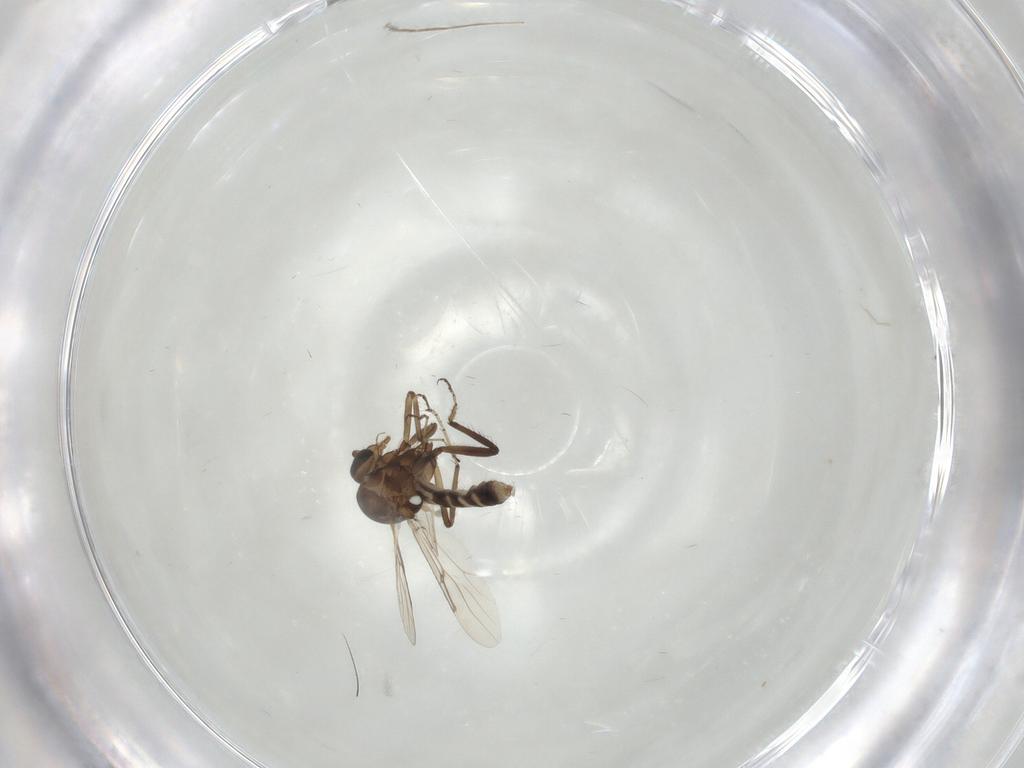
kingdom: Animalia
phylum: Arthropoda
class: Insecta
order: Diptera
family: Ceratopogonidae
